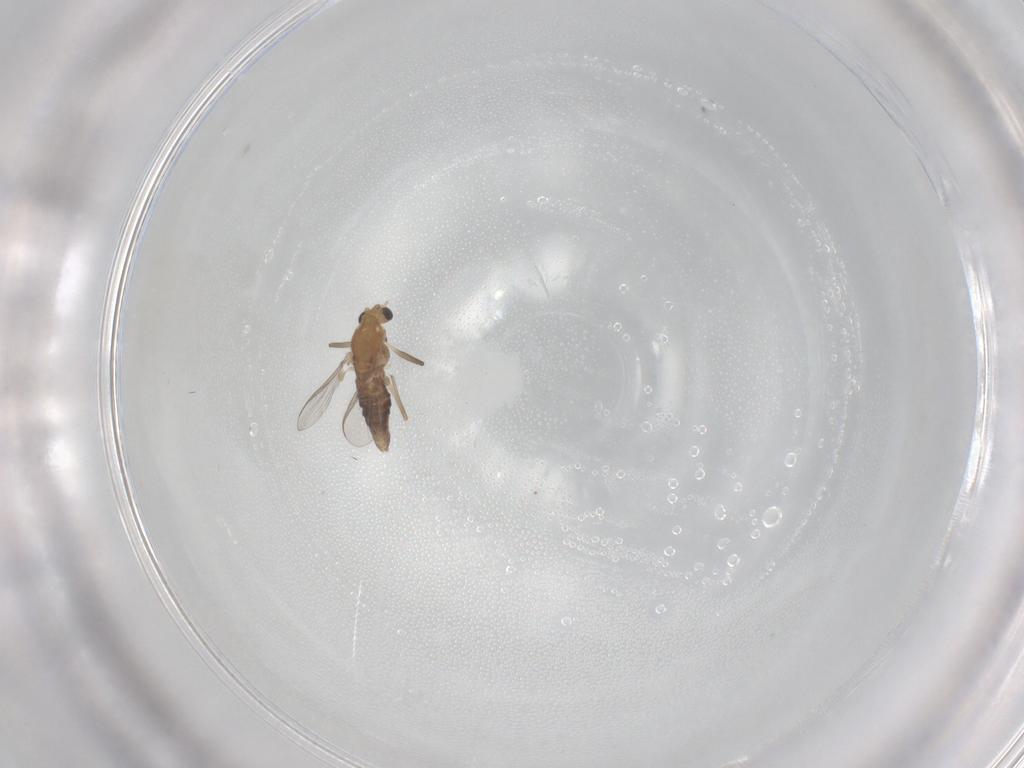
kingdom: Animalia
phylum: Arthropoda
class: Insecta
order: Diptera
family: Chironomidae
